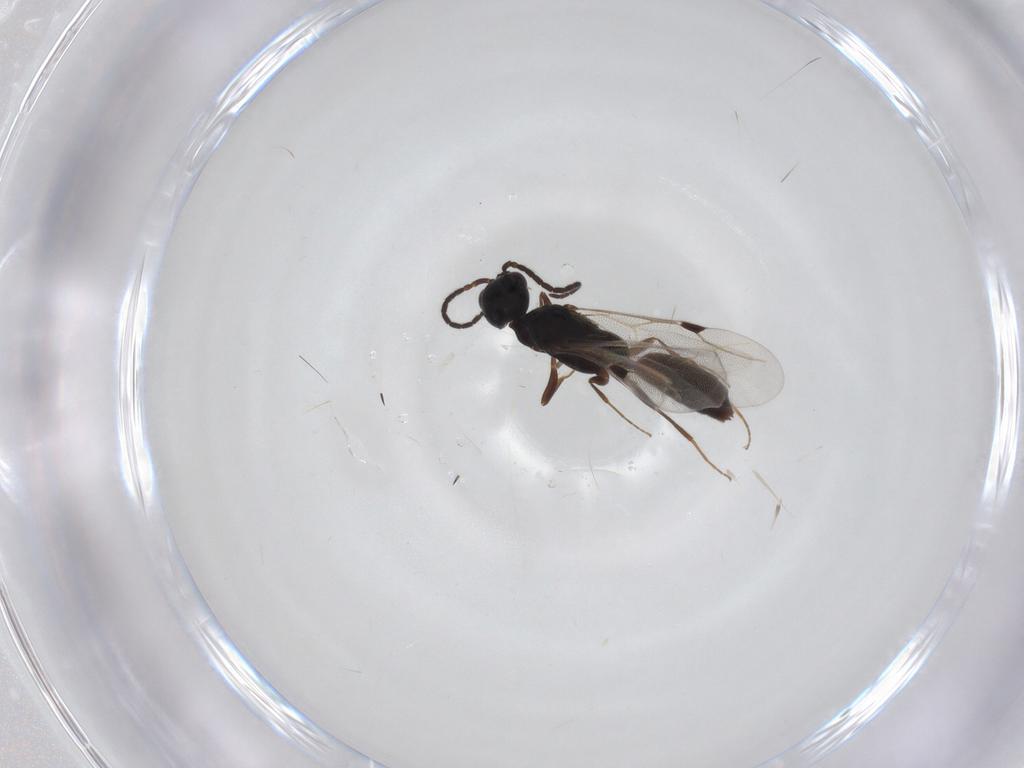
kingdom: Animalia
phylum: Arthropoda
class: Insecta
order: Hymenoptera
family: Bethylidae
